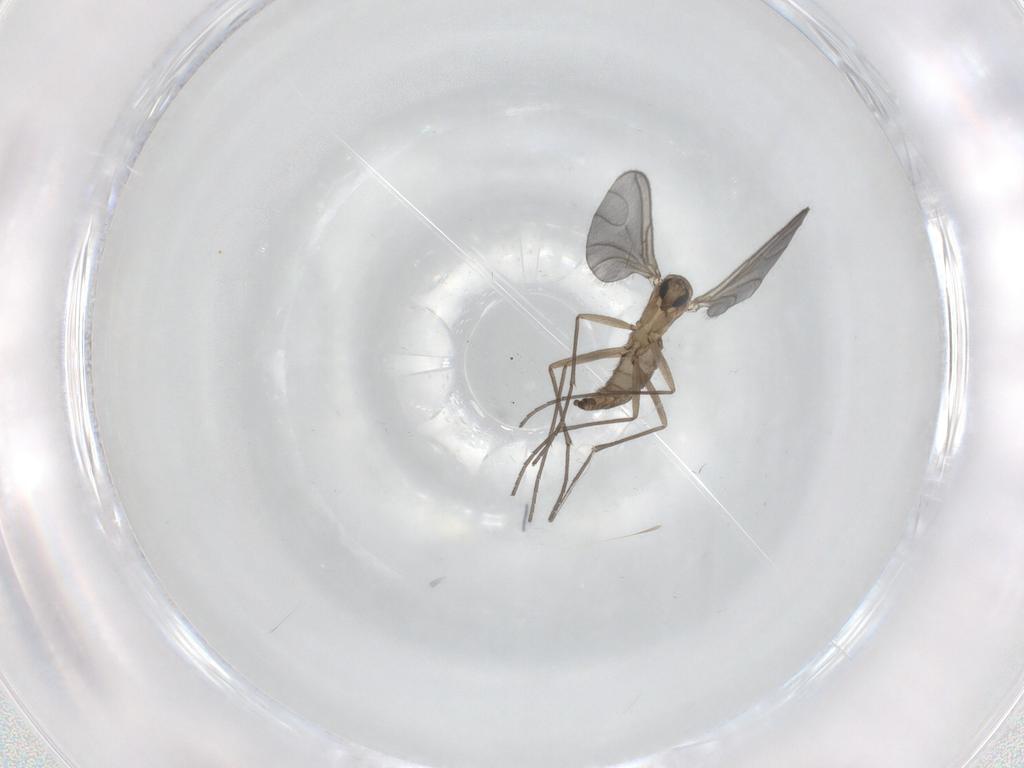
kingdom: Animalia
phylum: Arthropoda
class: Insecta
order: Diptera
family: Sciaridae
